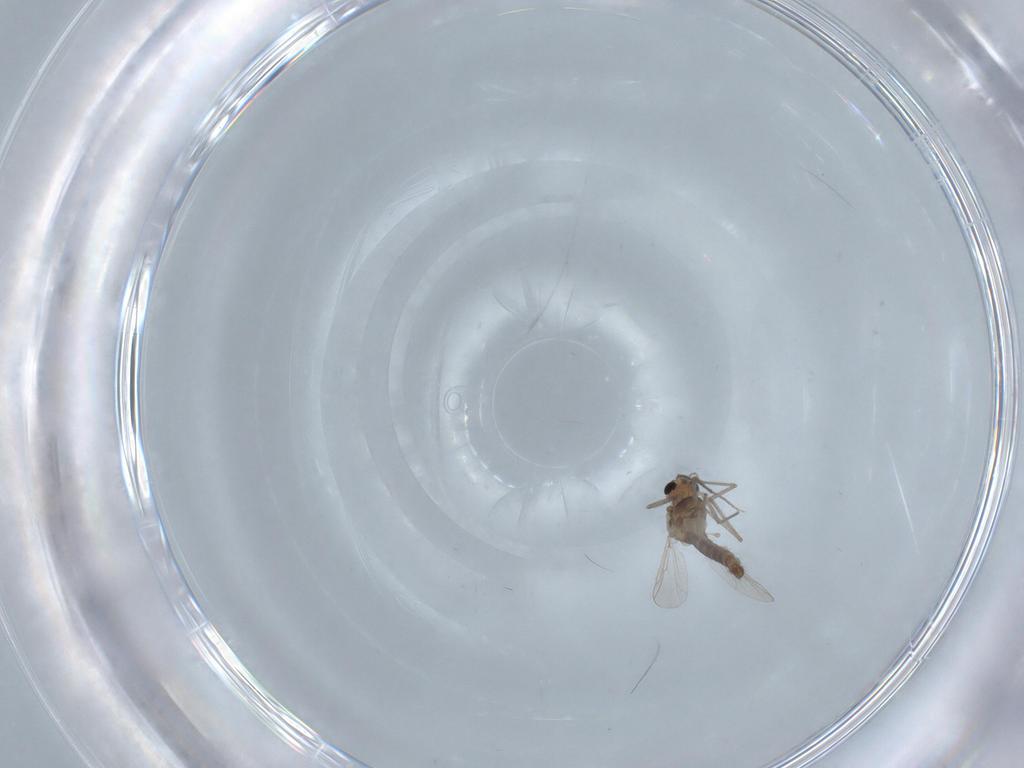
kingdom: Animalia
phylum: Arthropoda
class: Insecta
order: Diptera
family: Chironomidae
